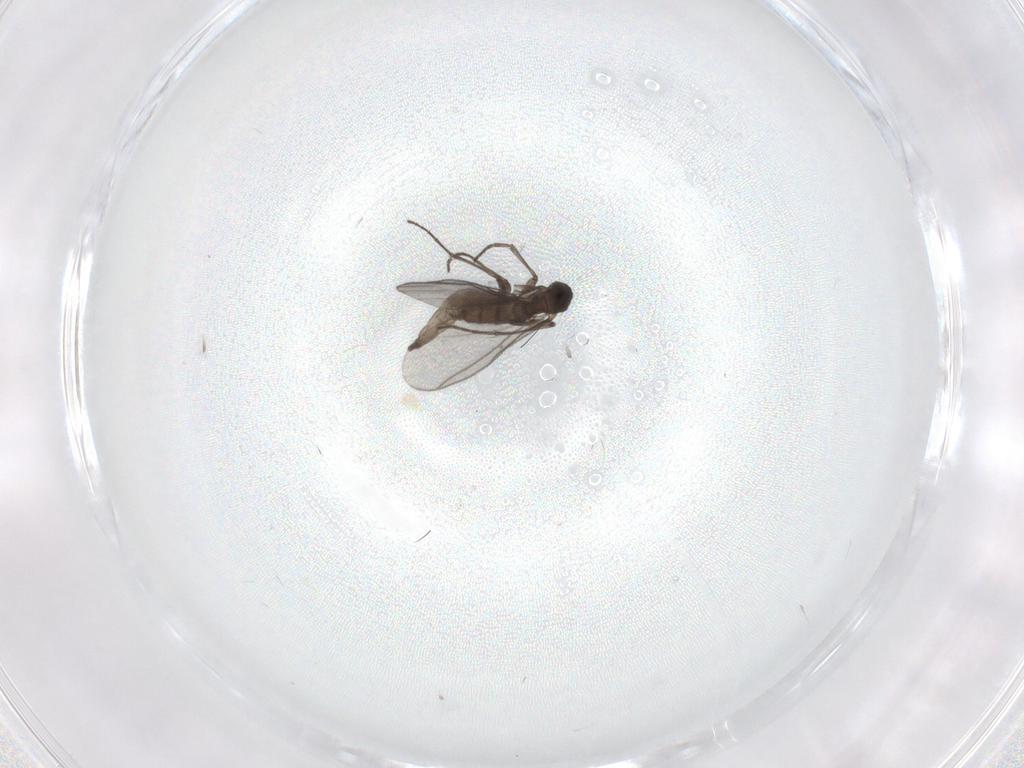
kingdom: Animalia
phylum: Arthropoda
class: Insecta
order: Diptera
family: Sciaridae
